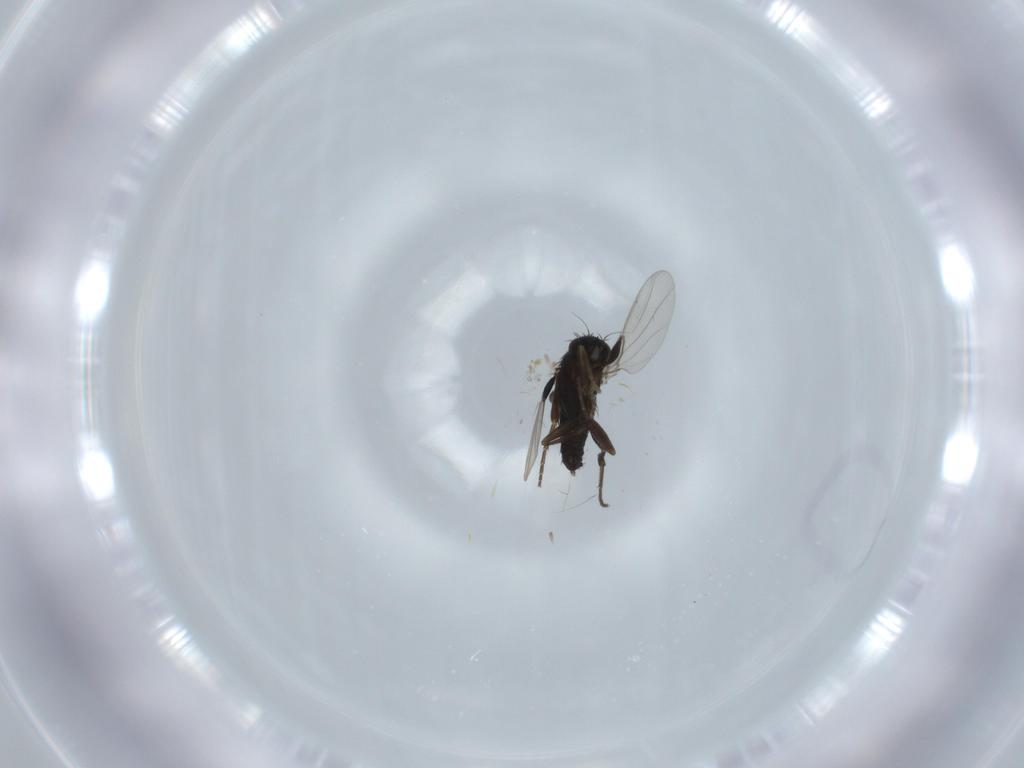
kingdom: Animalia
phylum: Arthropoda
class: Insecta
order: Diptera
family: Phoridae
